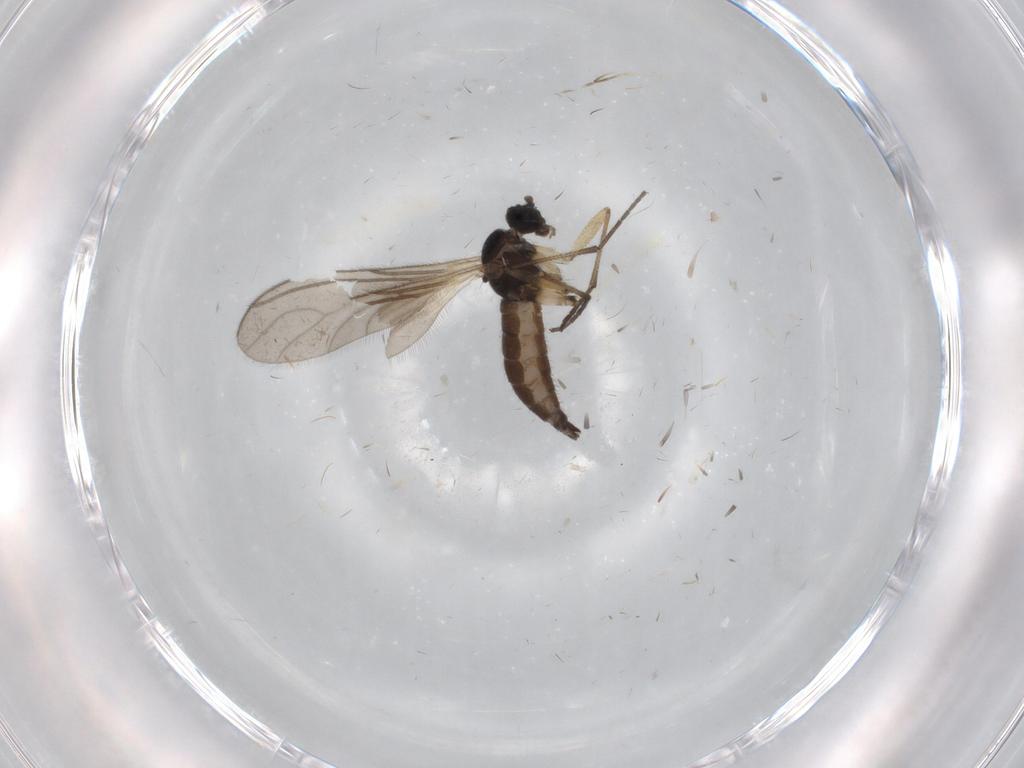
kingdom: Animalia
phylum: Arthropoda
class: Insecta
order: Diptera
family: Sciaridae
